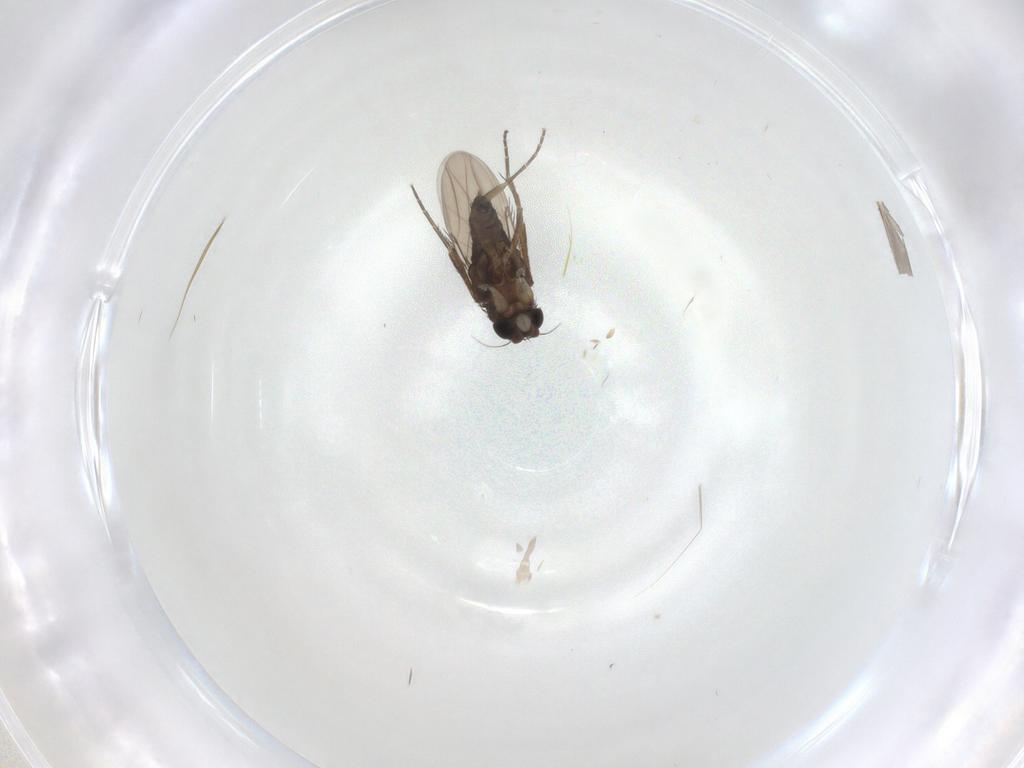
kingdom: Animalia
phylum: Arthropoda
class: Insecta
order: Diptera
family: Phoridae
